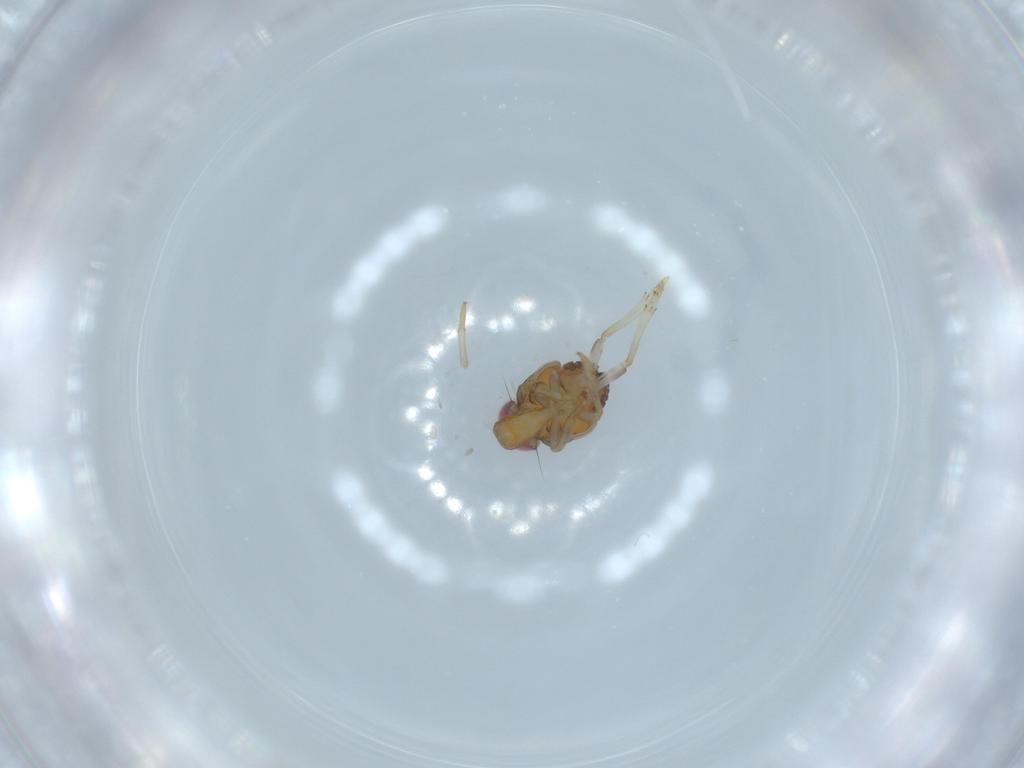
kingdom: Animalia
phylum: Arthropoda
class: Insecta
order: Hemiptera
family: Issidae
